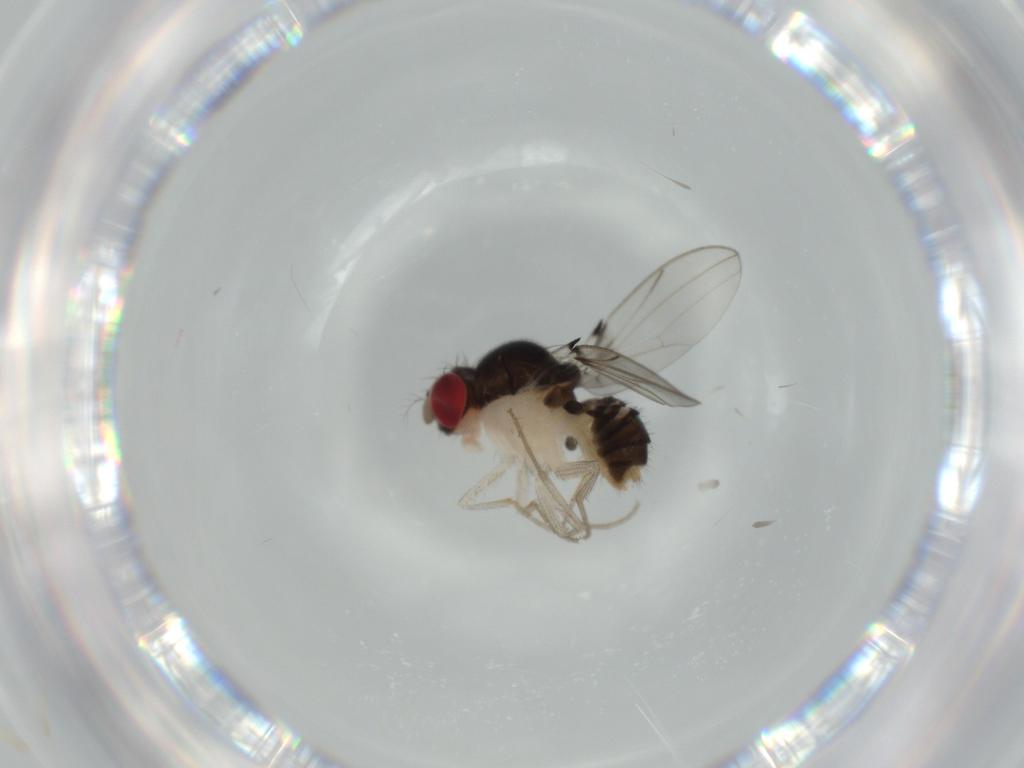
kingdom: Animalia
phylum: Arthropoda
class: Insecta
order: Diptera
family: Drosophilidae
